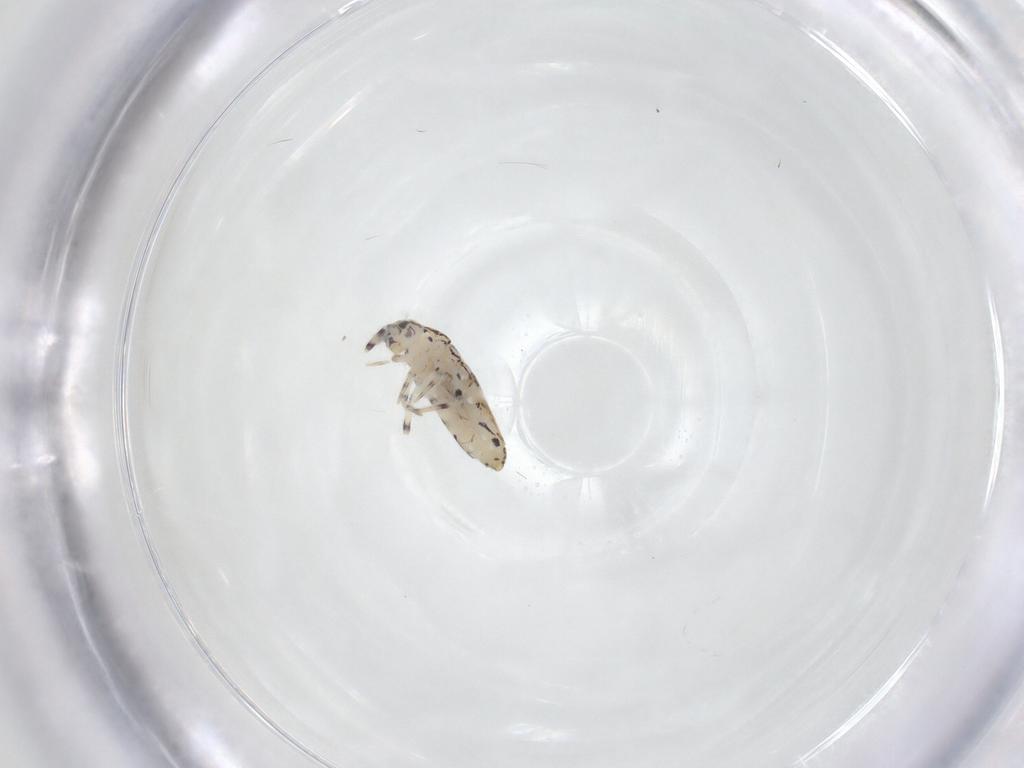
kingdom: Animalia
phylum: Arthropoda
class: Collembola
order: Entomobryomorpha
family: Entomobryidae
